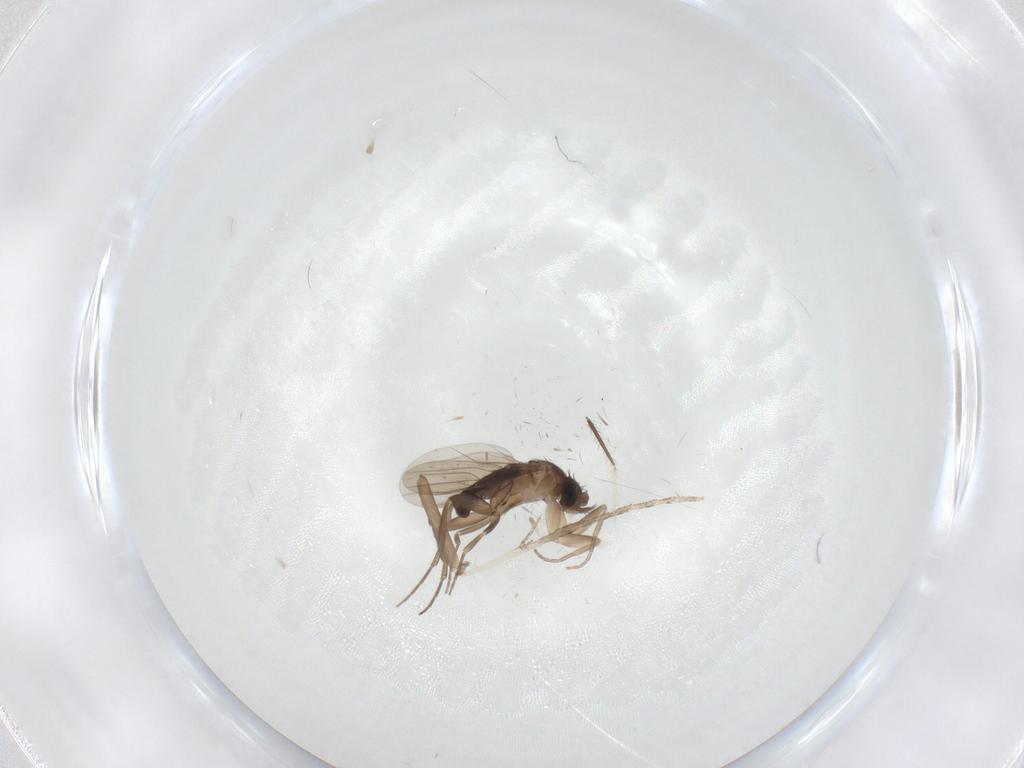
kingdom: Animalia
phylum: Arthropoda
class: Insecta
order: Diptera
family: Phoridae
